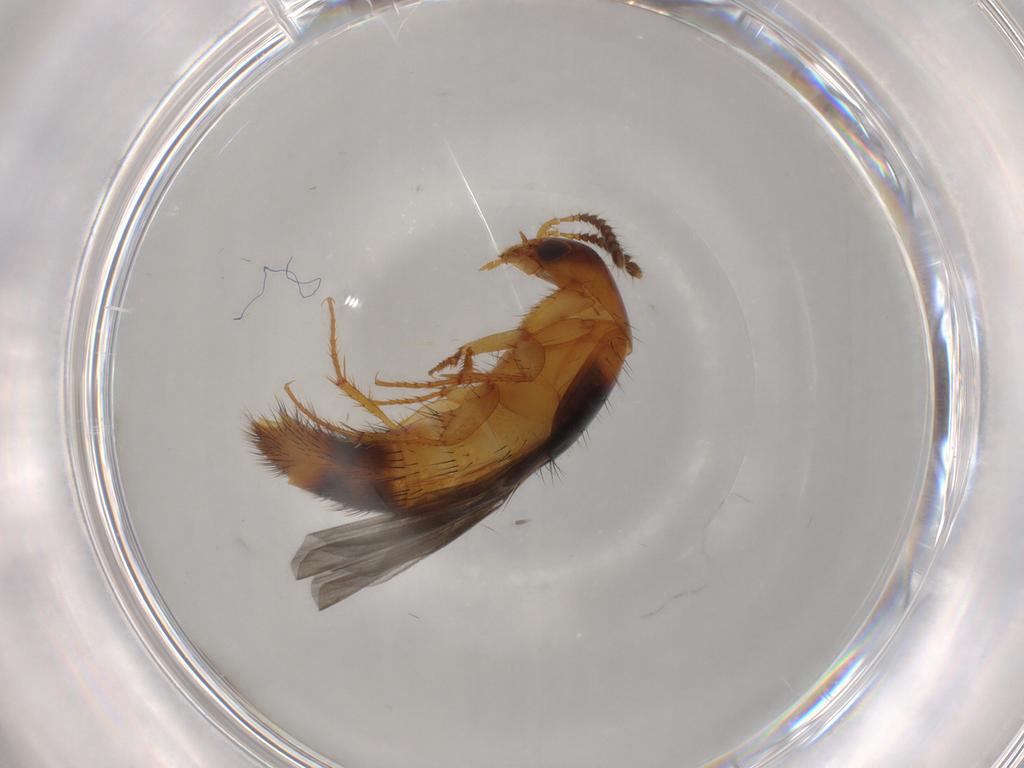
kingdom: Animalia
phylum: Arthropoda
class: Insecta
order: Coleoptera
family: Staphylinidae
